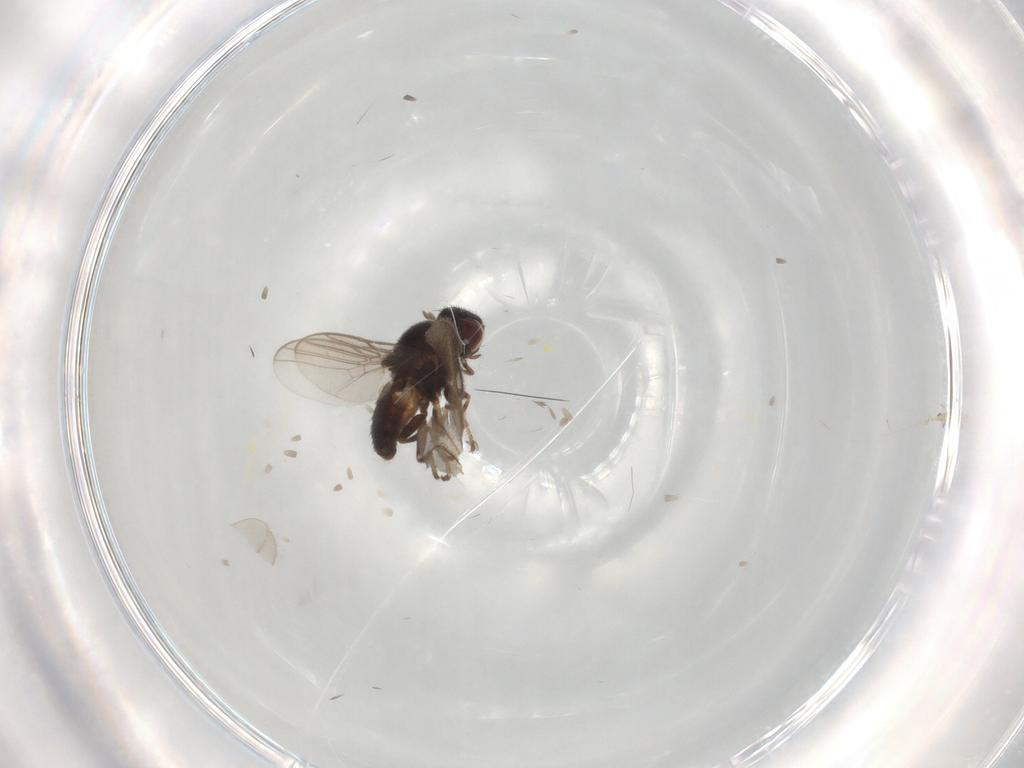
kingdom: Animalia
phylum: Arthropoda
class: Insecta
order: Diptera
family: Chloropidae
